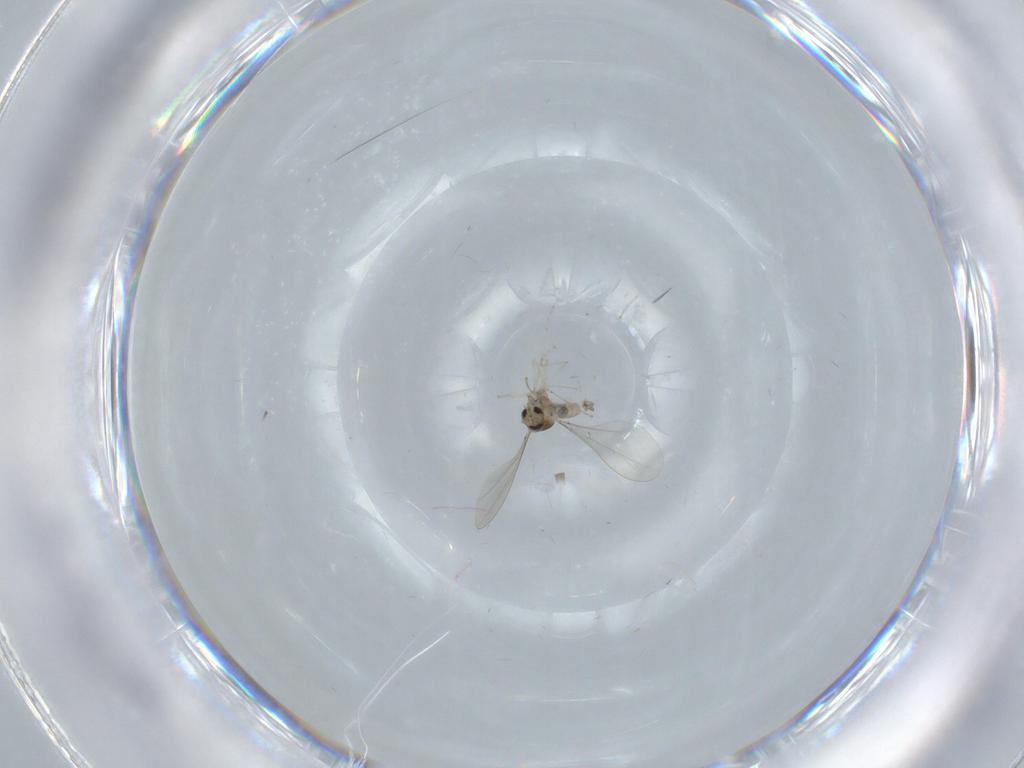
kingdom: Animalia
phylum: Arthropoda
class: Insecta
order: Diptera
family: Cecidomyiidae
